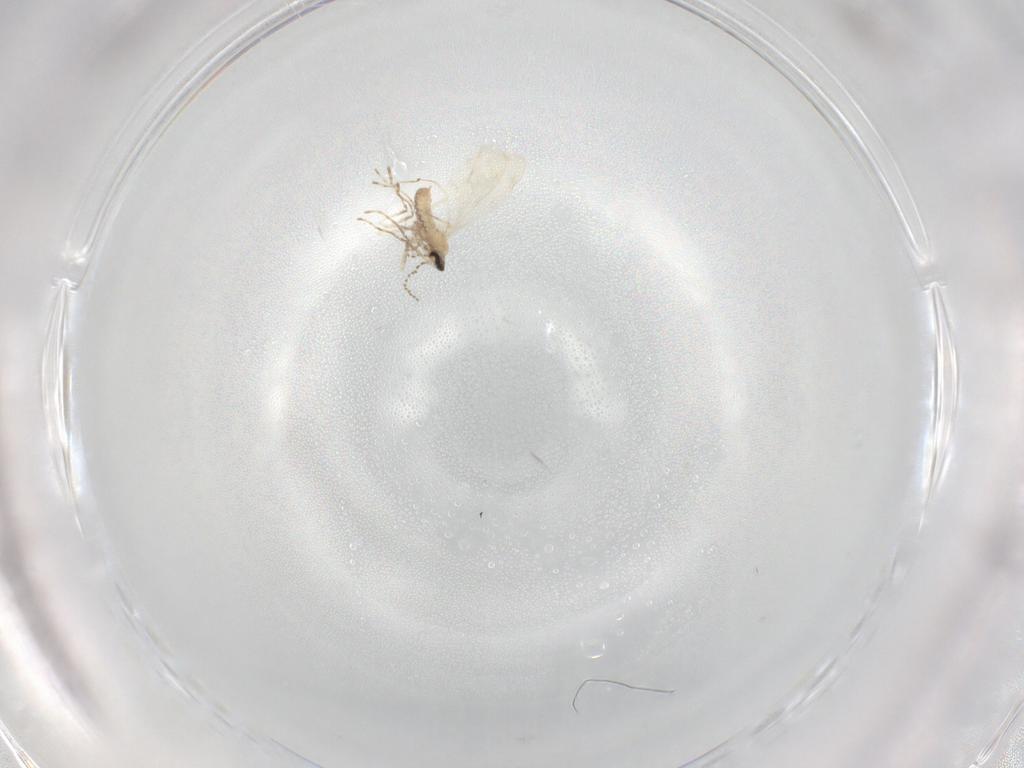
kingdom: Animalia
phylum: Arthropoda
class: Insecta
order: Diptera
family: Cecidomyiidae
